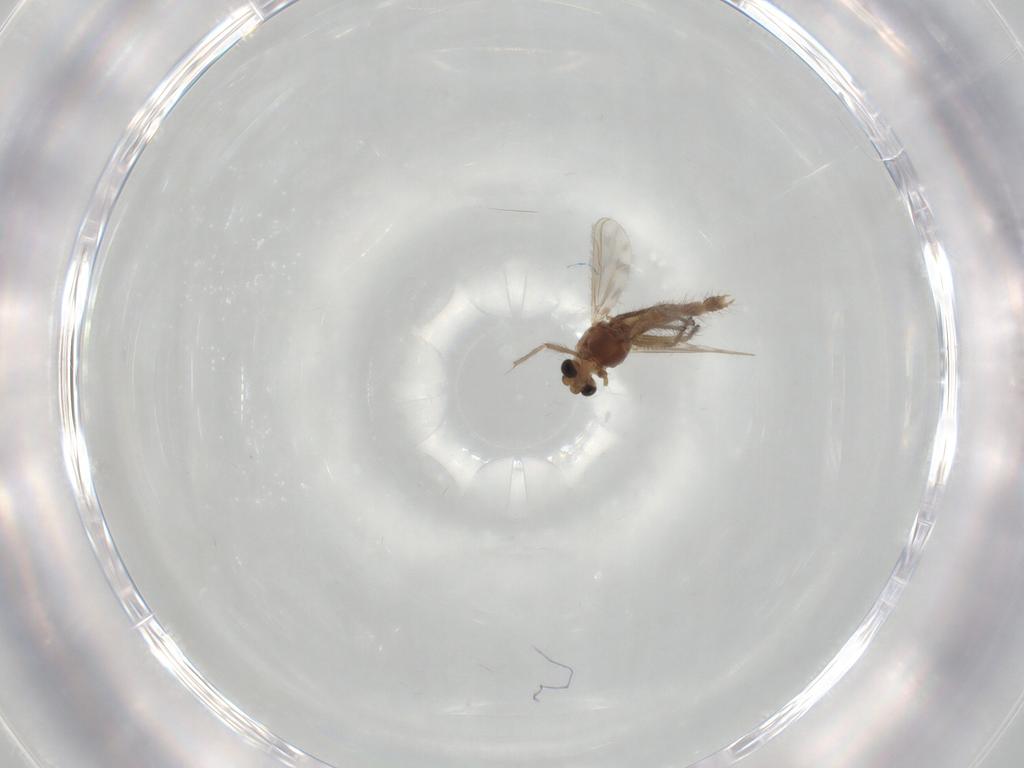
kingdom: Animalia
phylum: Arthropoda
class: Insecta
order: Diptera
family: Chironomidae
